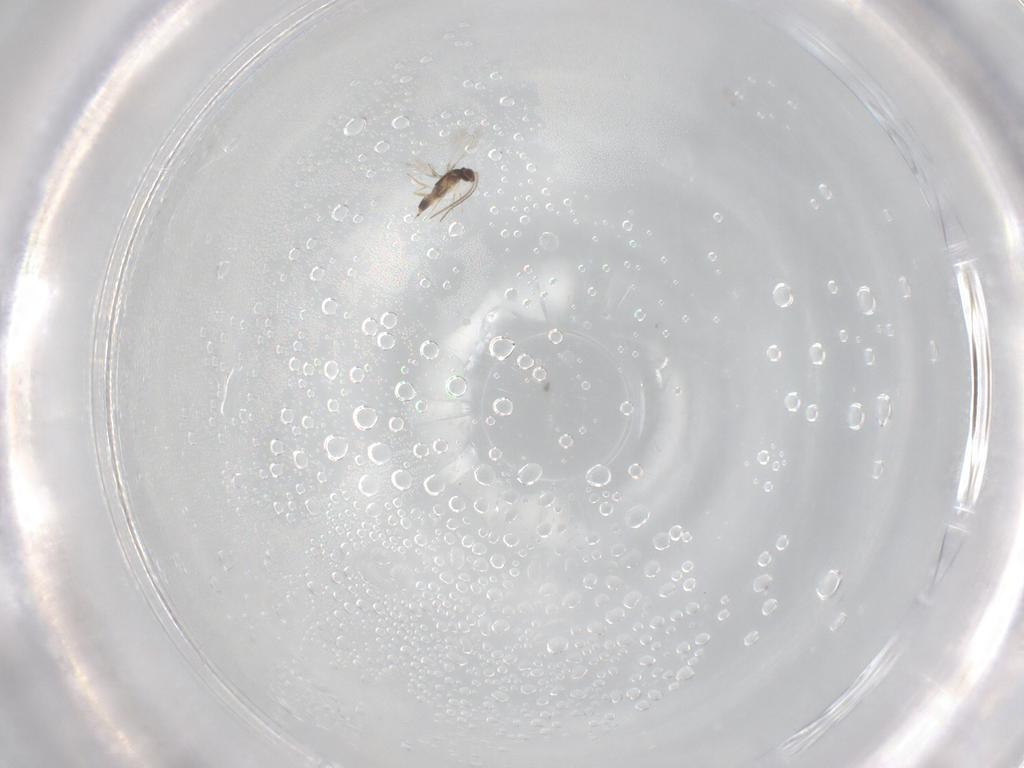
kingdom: Animalia
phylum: Arthropoda
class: Insecta
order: Hymenoptera
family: Mymaridae
